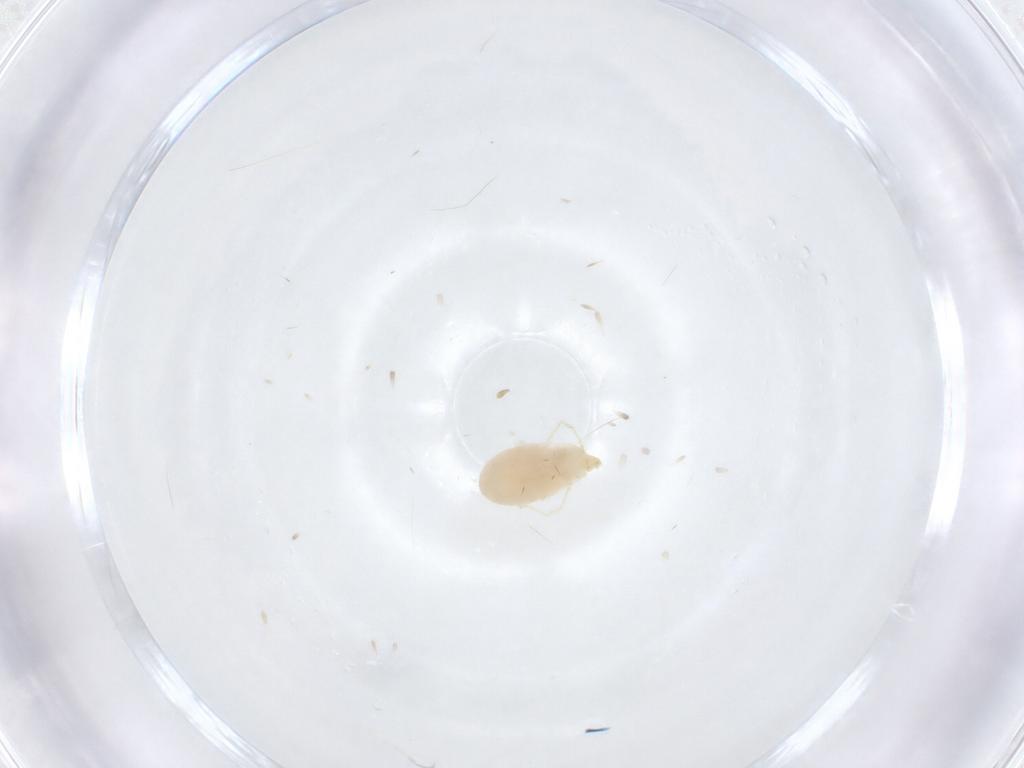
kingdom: Animalia
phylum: Arthropoda
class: Arachnida
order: Trombidiformes
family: Erythraeidae
